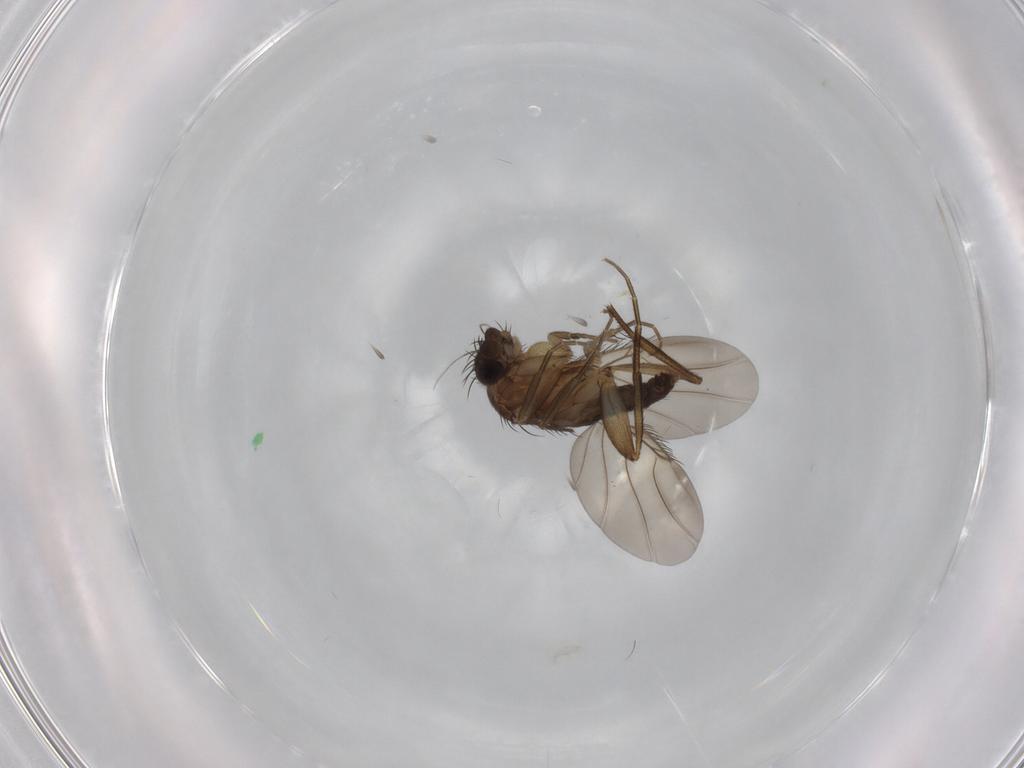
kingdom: Animalia
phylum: Arthropoda
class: Insecta
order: Diptera
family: Phoridae
